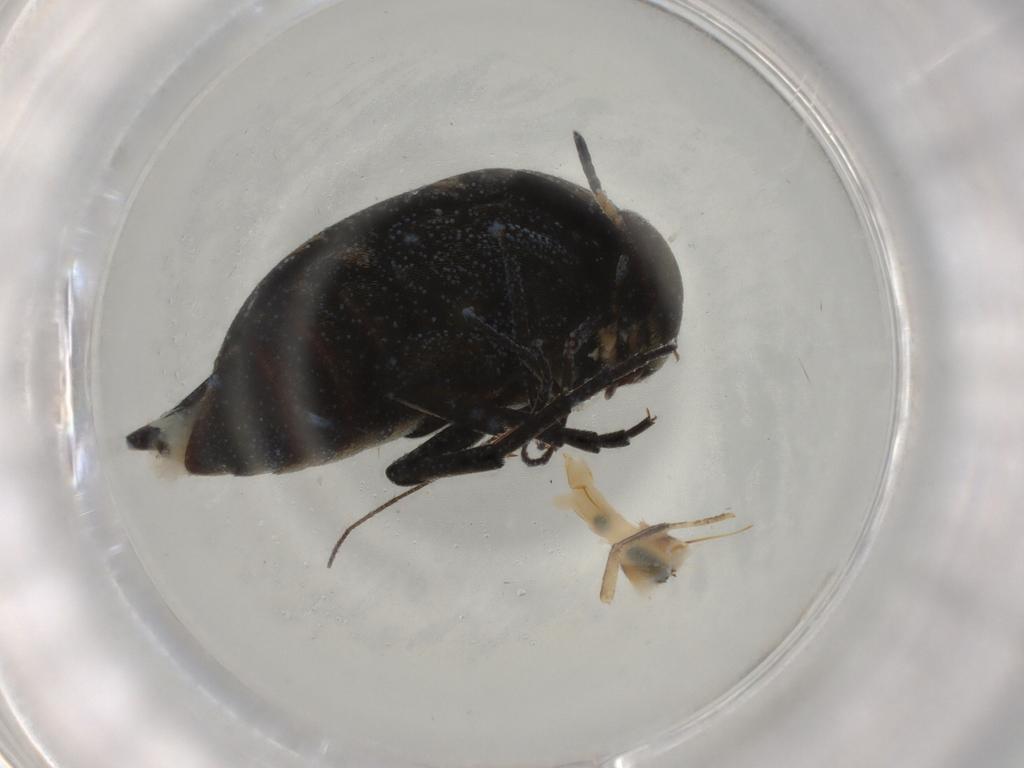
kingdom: Animalia
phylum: Arthropoda
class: Insecta
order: Coleoptera
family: Mordellidae
